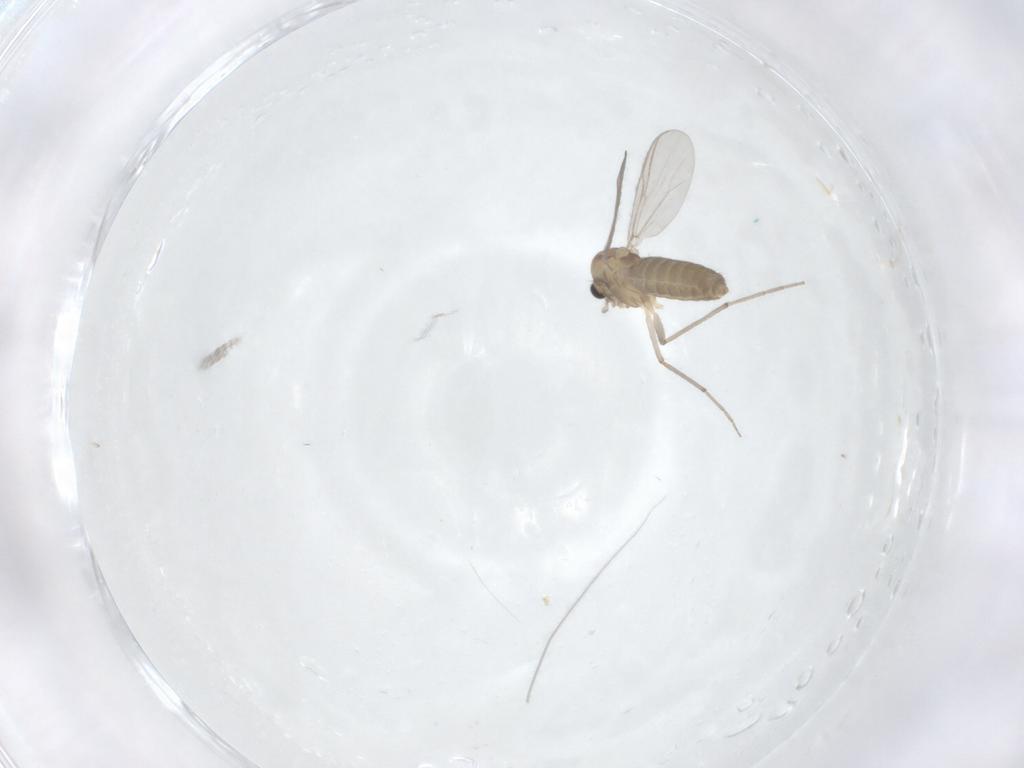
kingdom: Animalia
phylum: Arthropoda
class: Insecta
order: Diptera
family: Chironomidae
